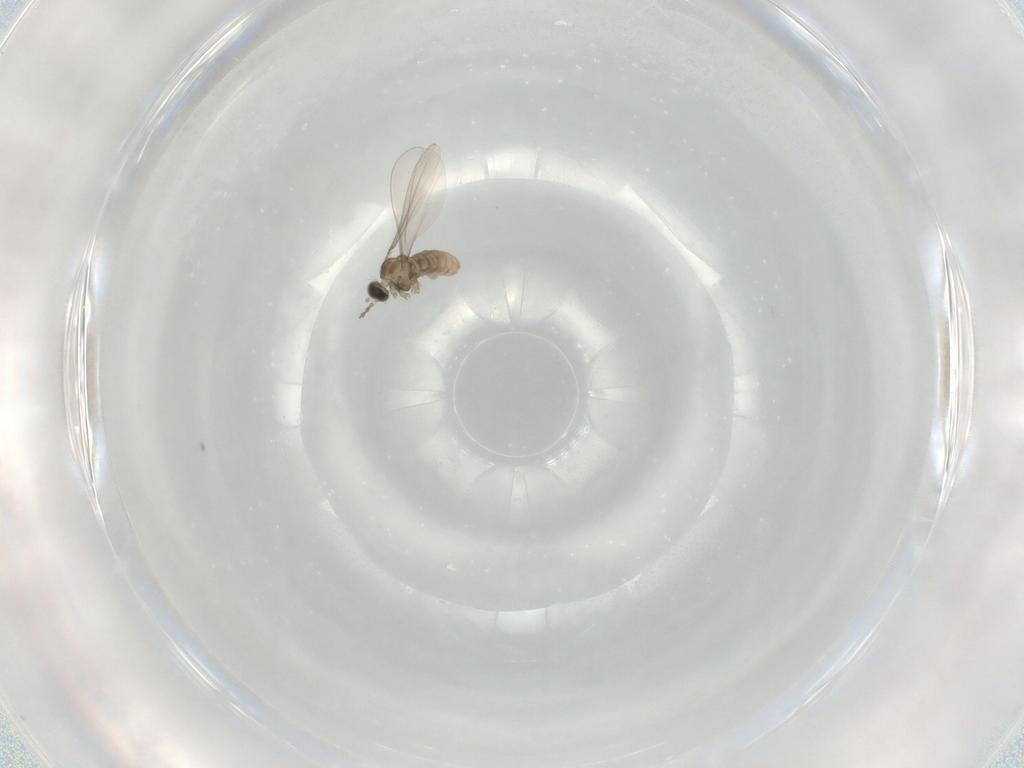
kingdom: Animalia
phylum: Arthropoda
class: Insecta
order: Diptera
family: Cecidomyiidae
